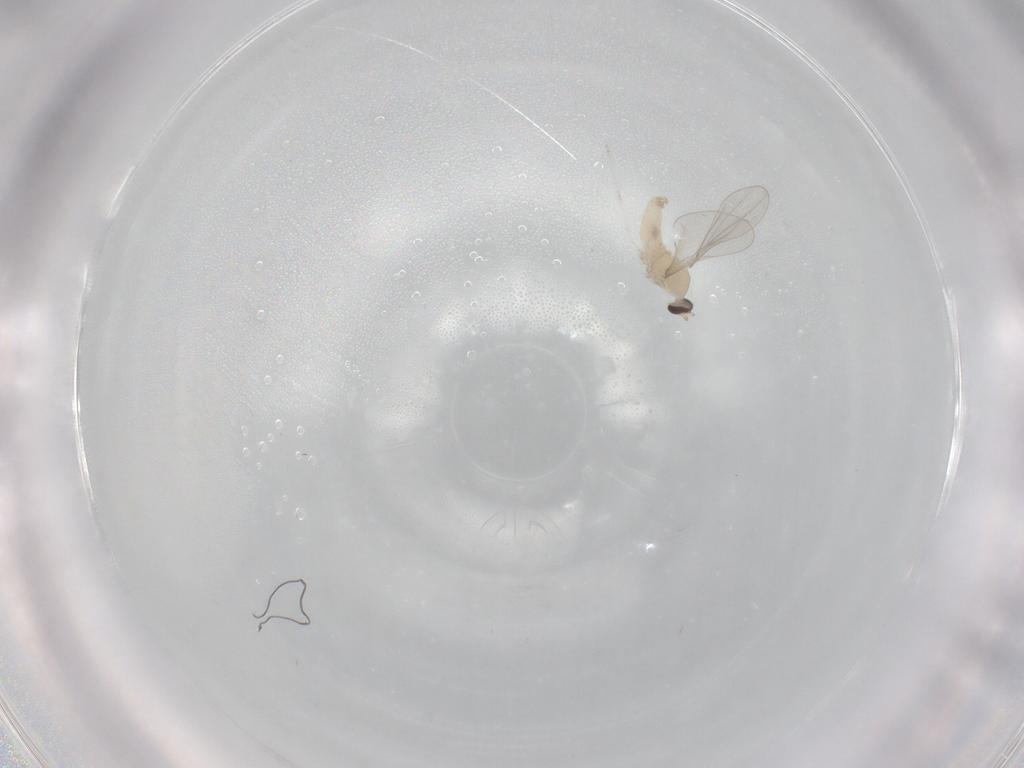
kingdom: Animalia
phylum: Arthropoda
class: Insecta
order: Diptera
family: Cecidomyiidae
